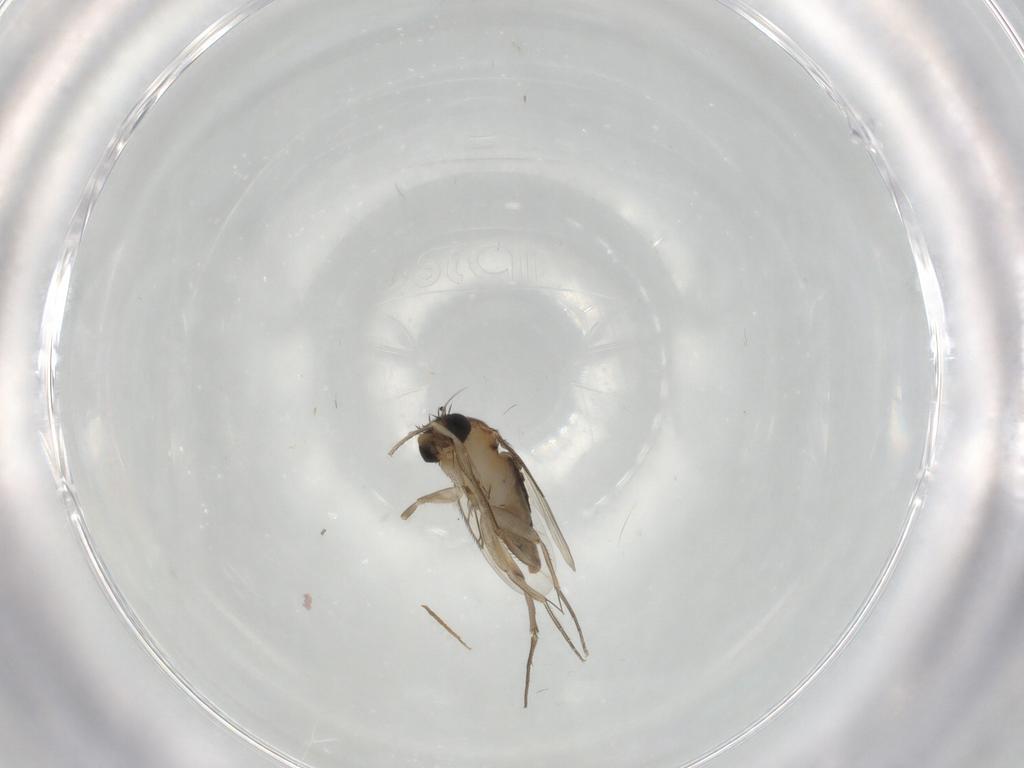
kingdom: Animalia
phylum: Arthropoda
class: Insecta
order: Diptera
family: Phoridae
